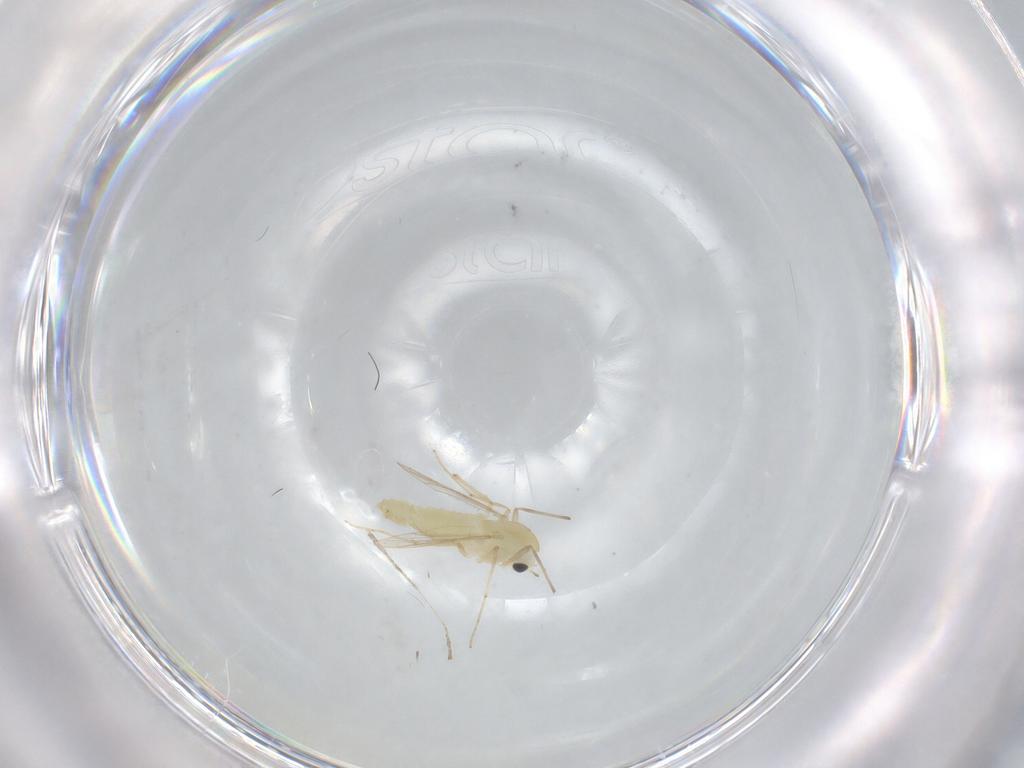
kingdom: Animalia
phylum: Arthropoda
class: Insecta
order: Diptera
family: Chironomidae
